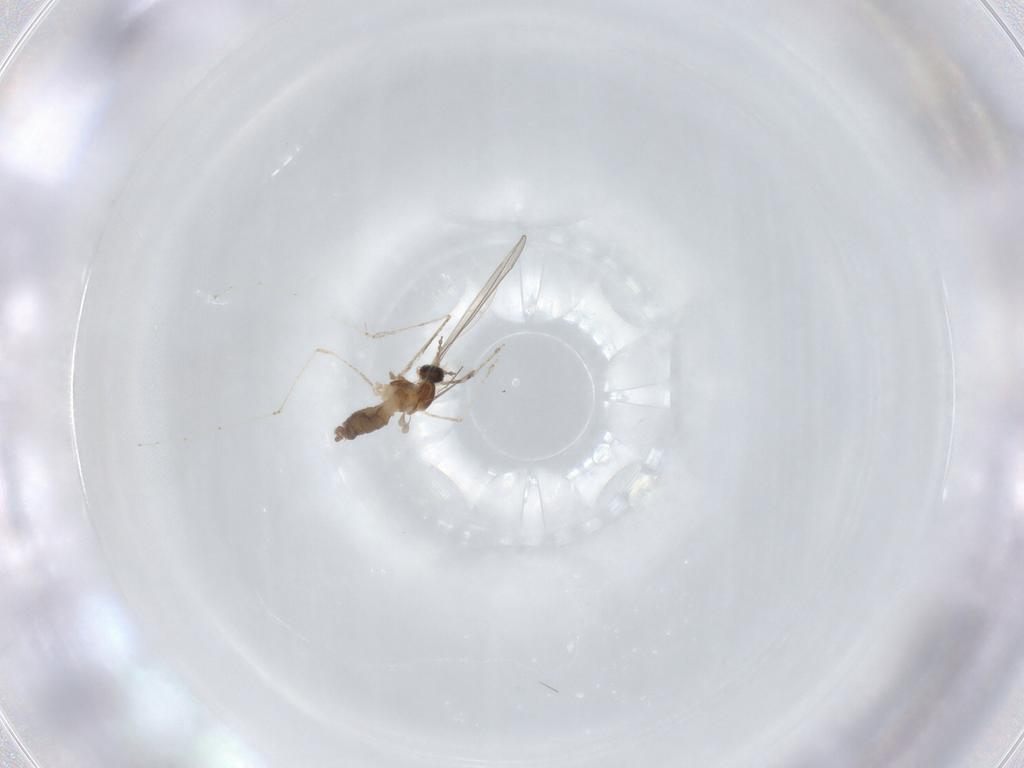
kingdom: Animalia
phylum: Arthropoda
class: Insecta
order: Diptera
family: Cecidomyiidae
